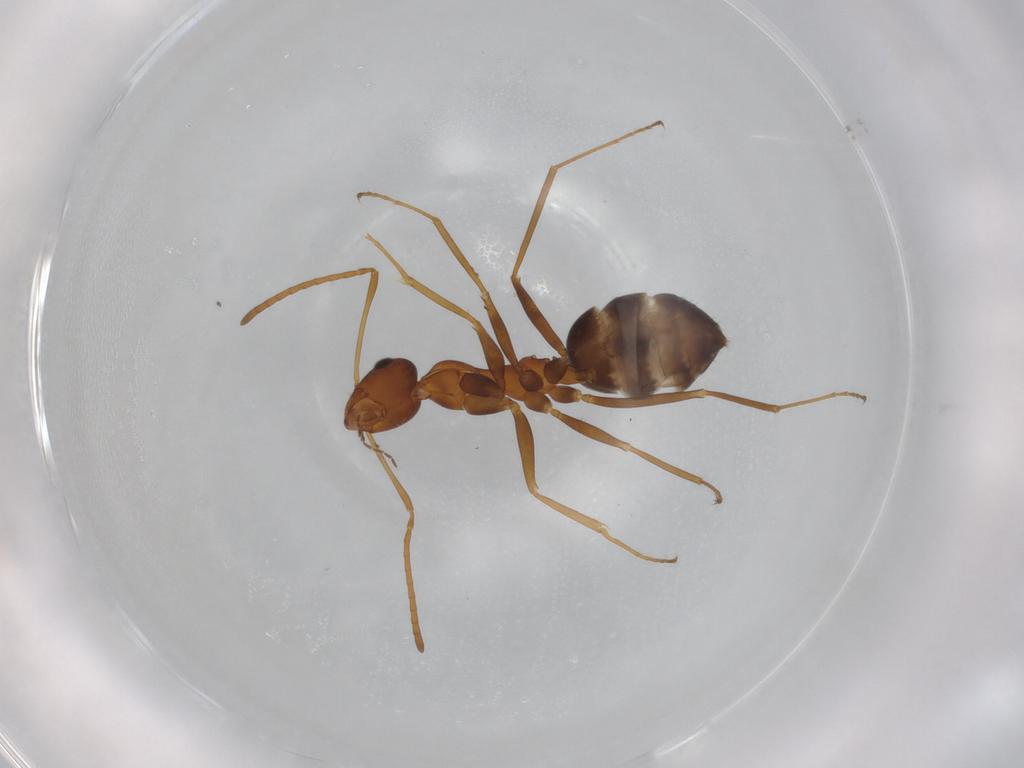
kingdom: Animalia
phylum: Arthropoda
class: Insecta
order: Hymenoptera
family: Formicidae
